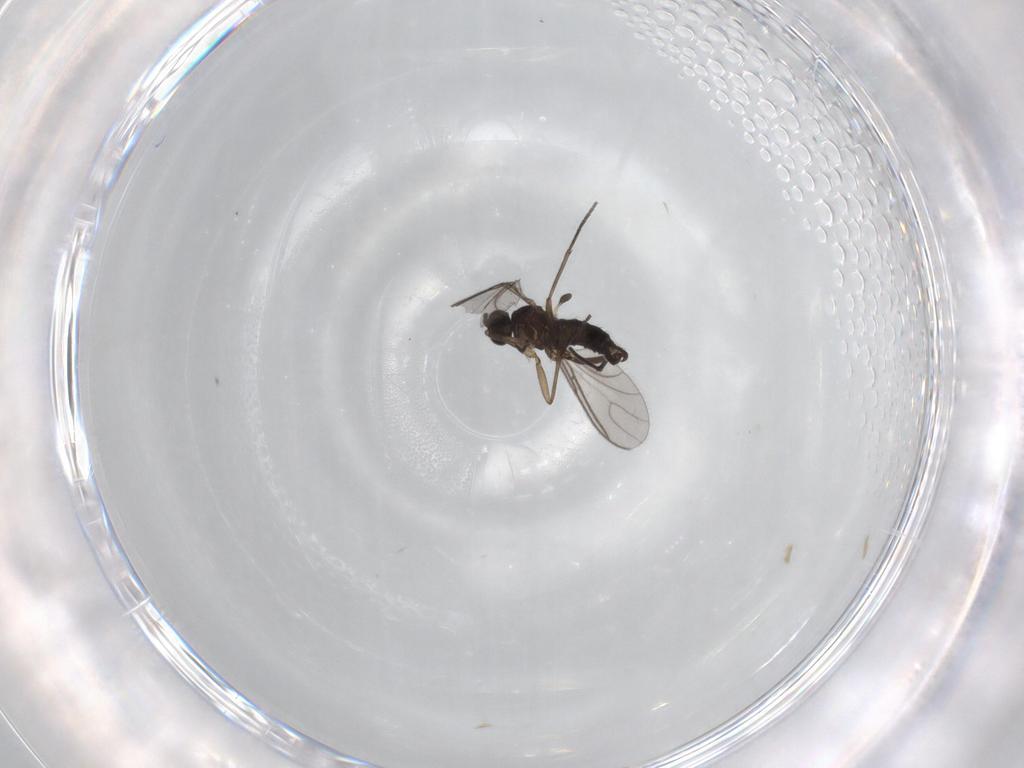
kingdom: Animalia
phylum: Arthropoda
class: Insecta
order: Diptera
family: Sciaridae
